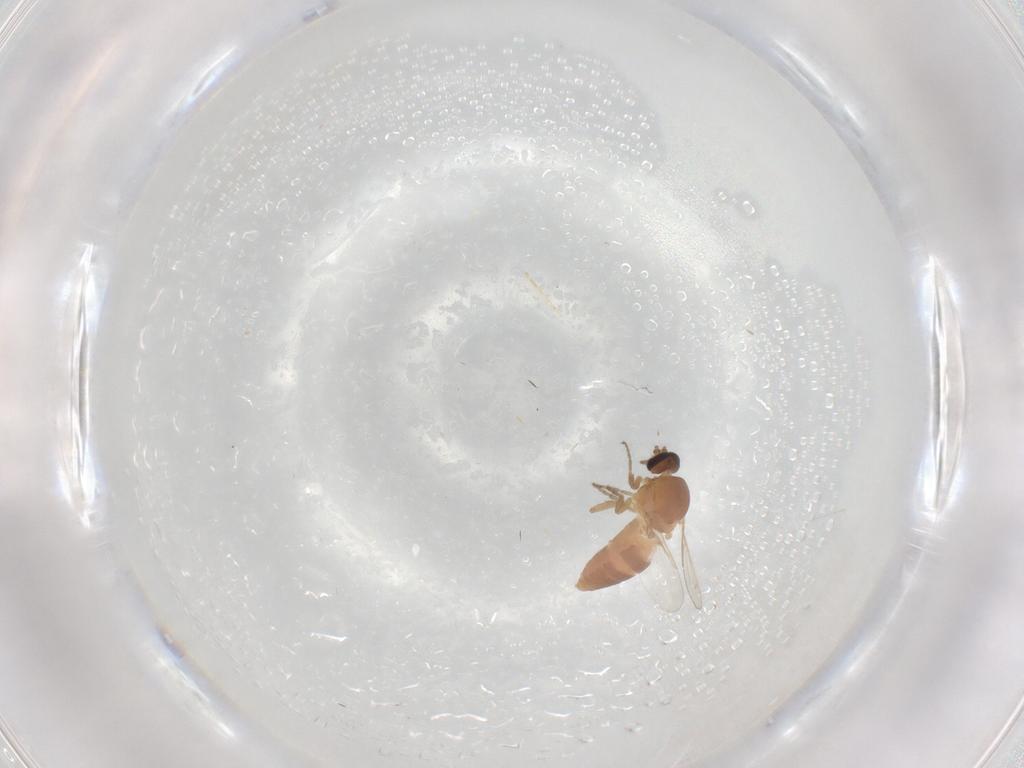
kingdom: Animalia
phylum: Arthropoda
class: Insecta
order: Diptera
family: Ceratopogonidae
